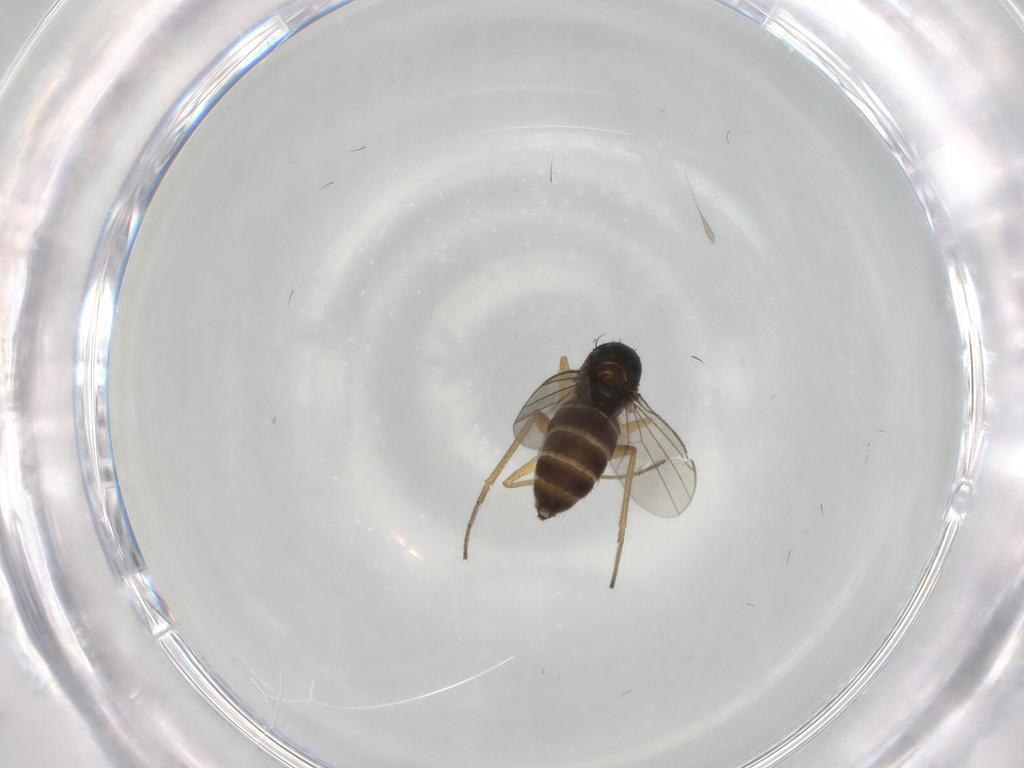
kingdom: Animalia
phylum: Arthropoda
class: Insecta
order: Diptera
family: Dolichopodidae
